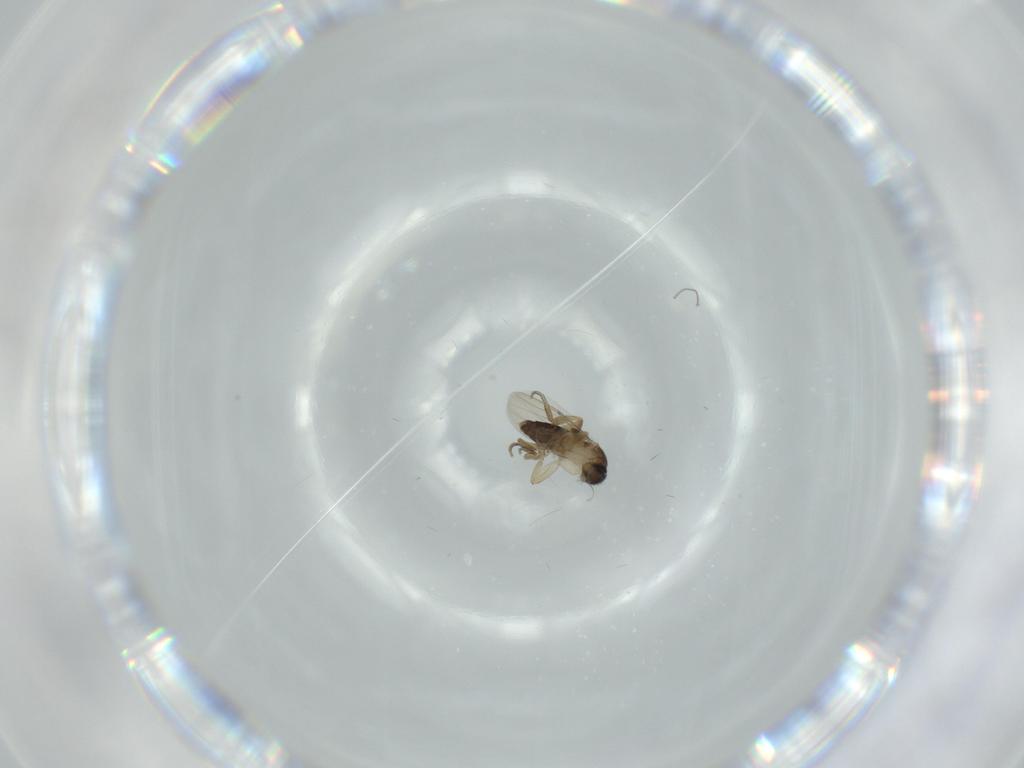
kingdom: Animalia
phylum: Arthropoda
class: Insecta
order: Diptera
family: Phoridae
